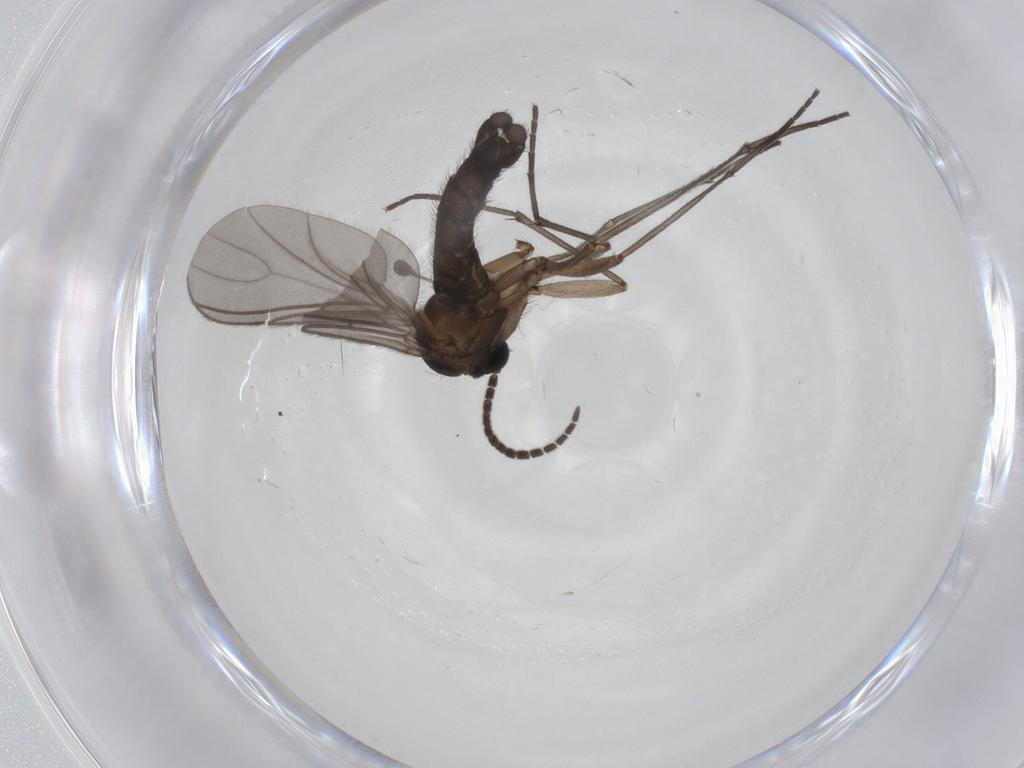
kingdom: Animalia
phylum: Arthropoda
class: Insecta
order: Diptera
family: Sciaridae
